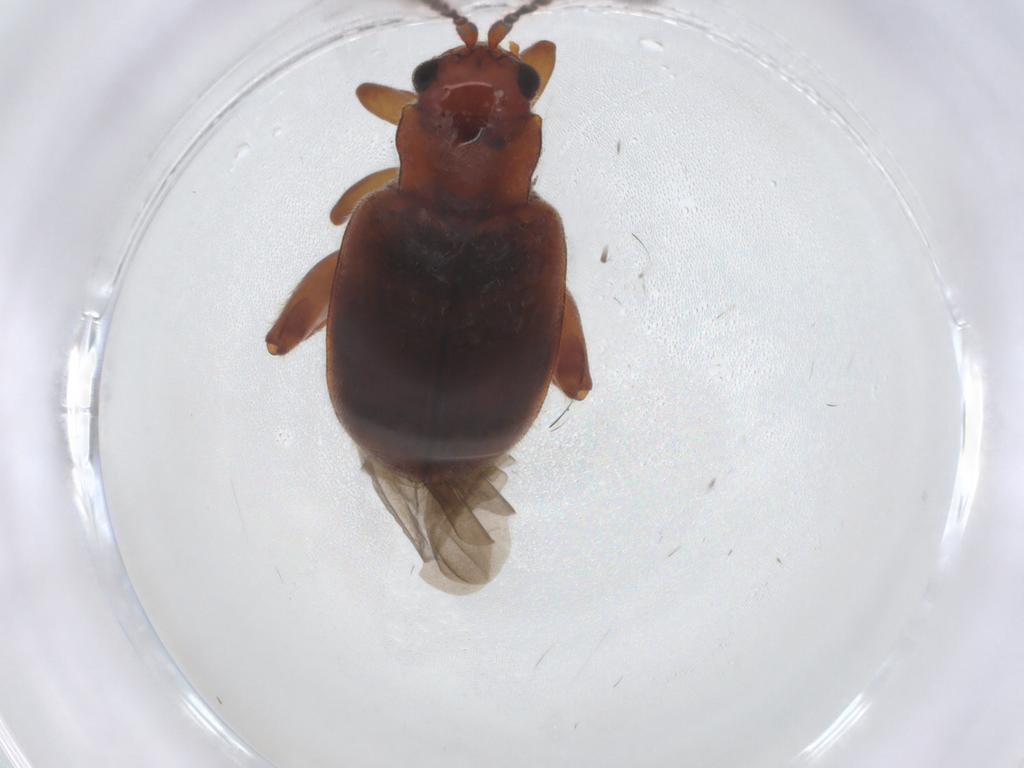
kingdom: Animalia
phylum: Arthropoda
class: Insecta
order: Coleoptera
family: Chrysomelidae
